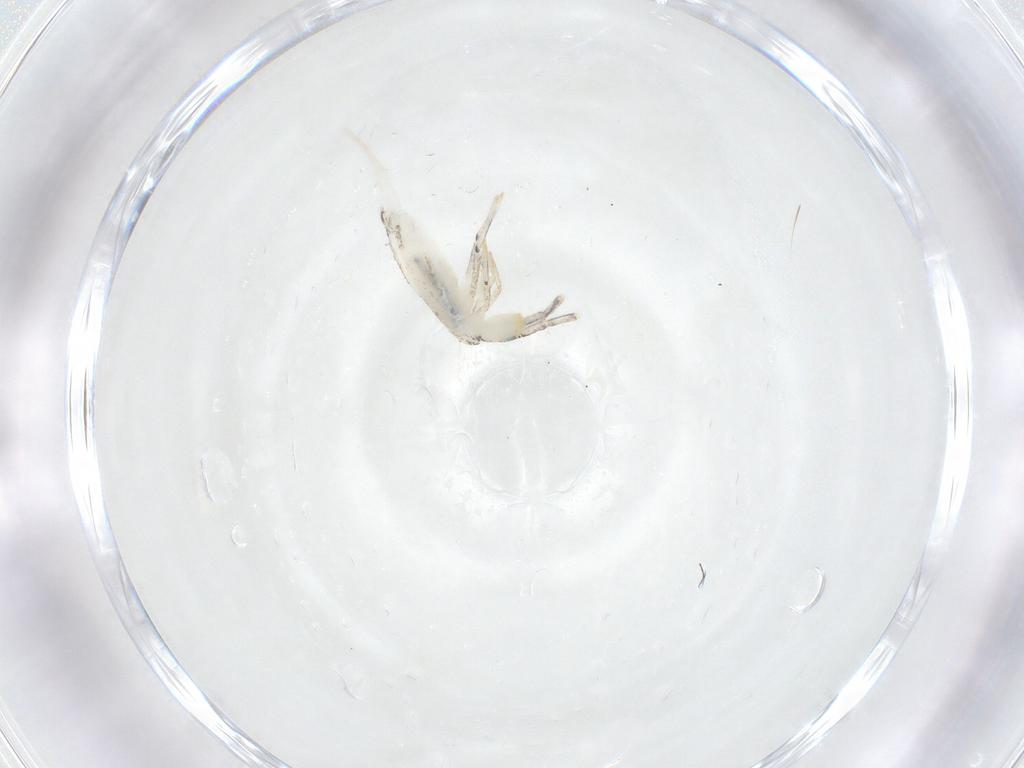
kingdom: Animalia
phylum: Arthropoda
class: Collembola
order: Entomobryomorpha
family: Entomobryidae
